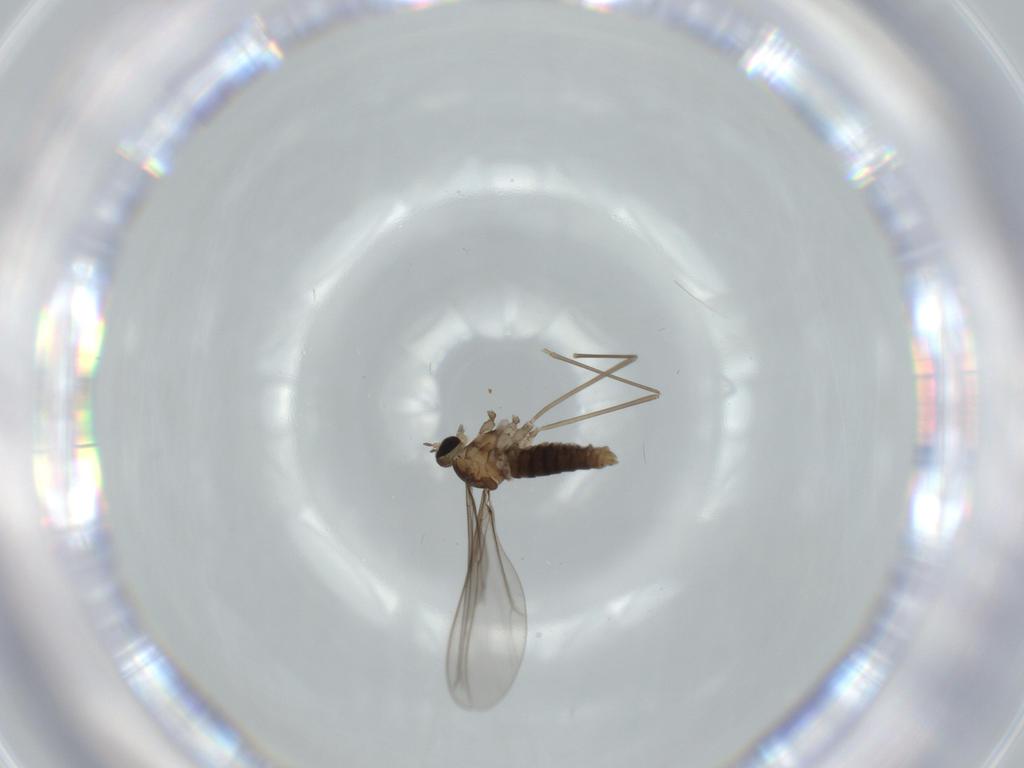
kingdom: Animalia
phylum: Arthropoda
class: Insecta
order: Diptera
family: Cecidomyiidae
